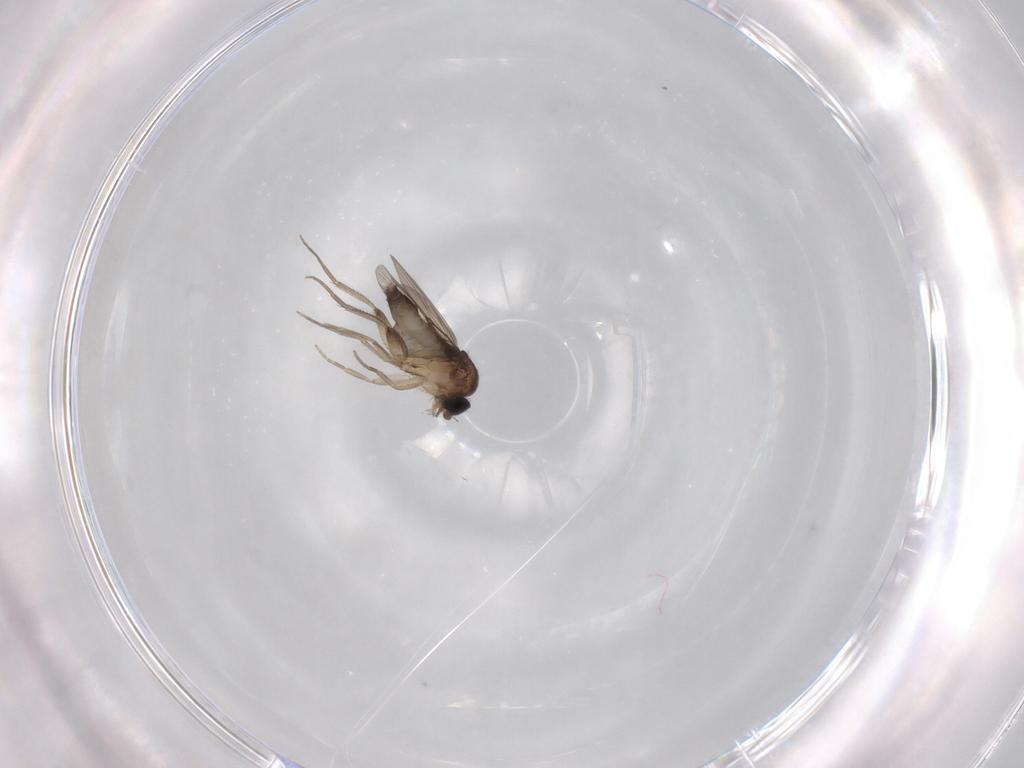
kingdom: Animalia
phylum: Arthropoda
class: Insecta
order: Diptera
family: Phoridae
